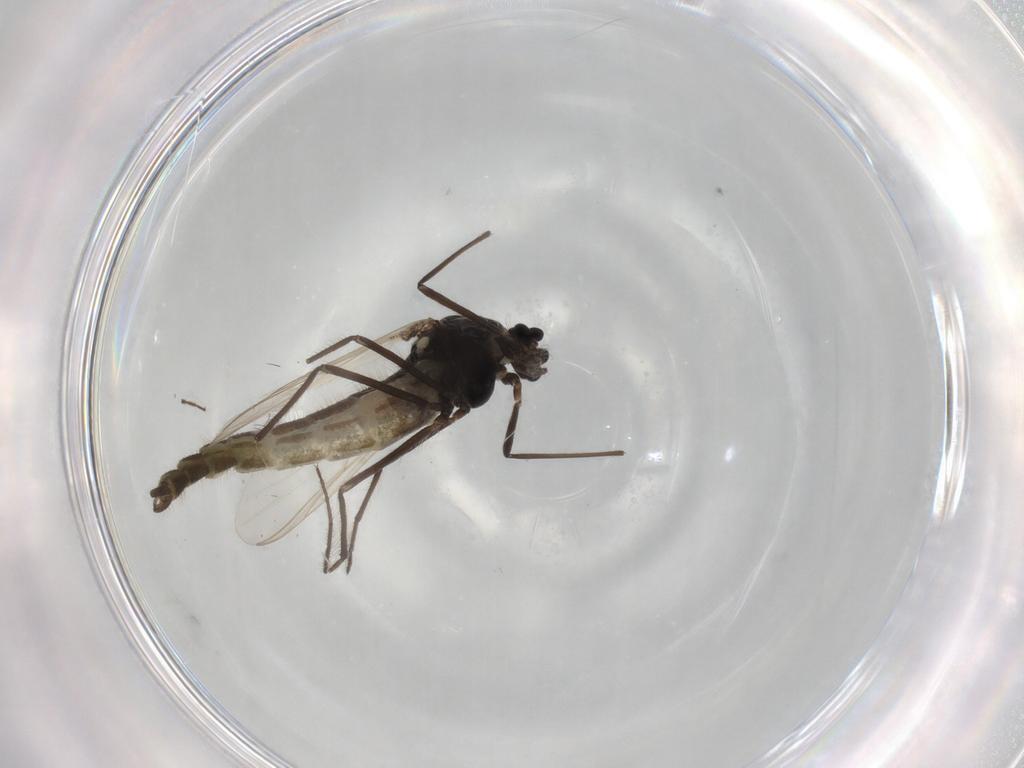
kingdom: Animalia
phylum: Arthropoda
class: Insecta
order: Diptera
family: Chironomidae
